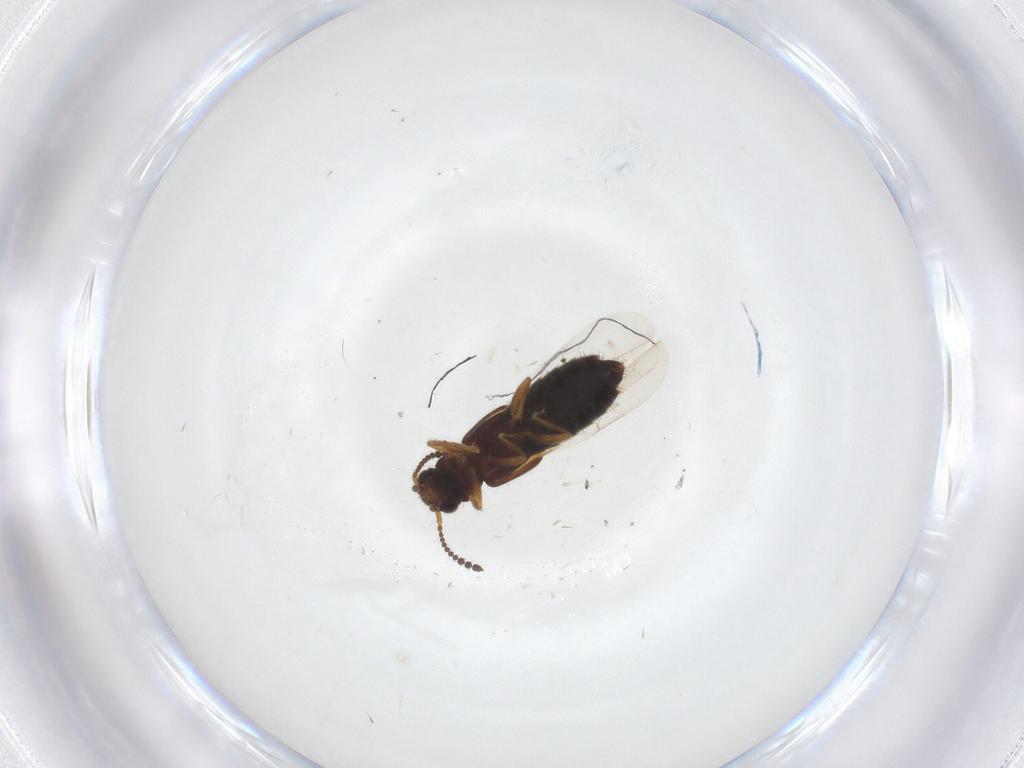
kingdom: Animalia
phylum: Arthropoda
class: Insecta
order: Coleoptera
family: Staphylinidae
